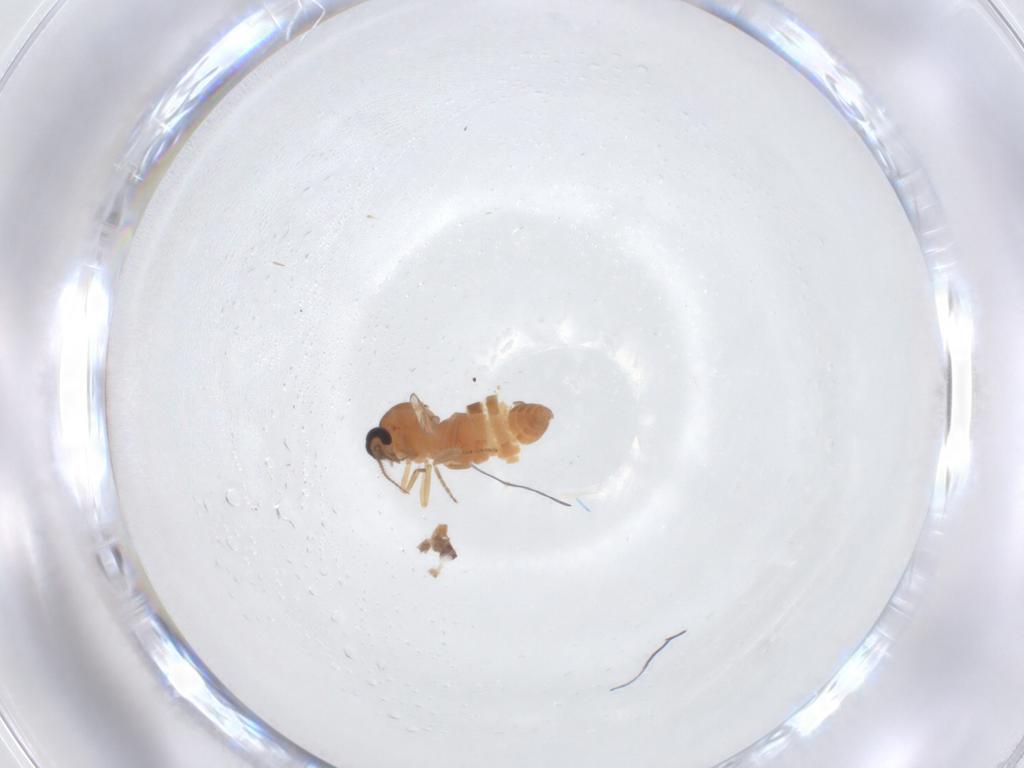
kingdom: Animalia
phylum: Arthropoda
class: Insecta
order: Diptera
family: Ceratopogonidae
